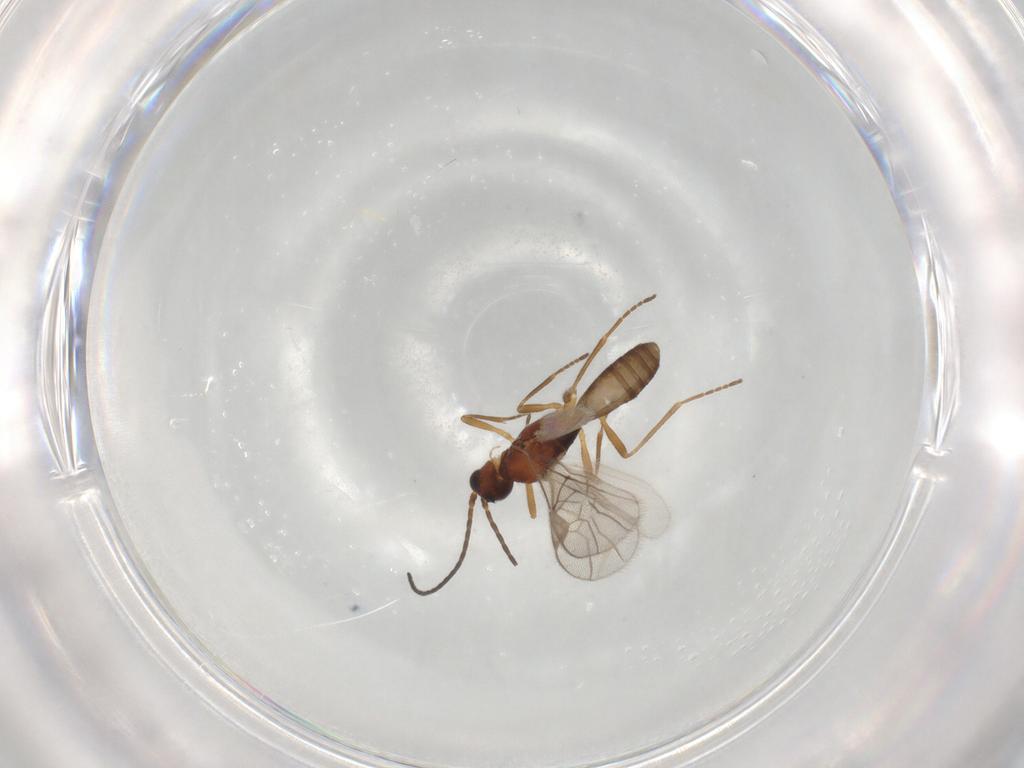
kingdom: Animalia
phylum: Arthropoda
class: Insecta
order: Hymenoptera
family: Braconidae
